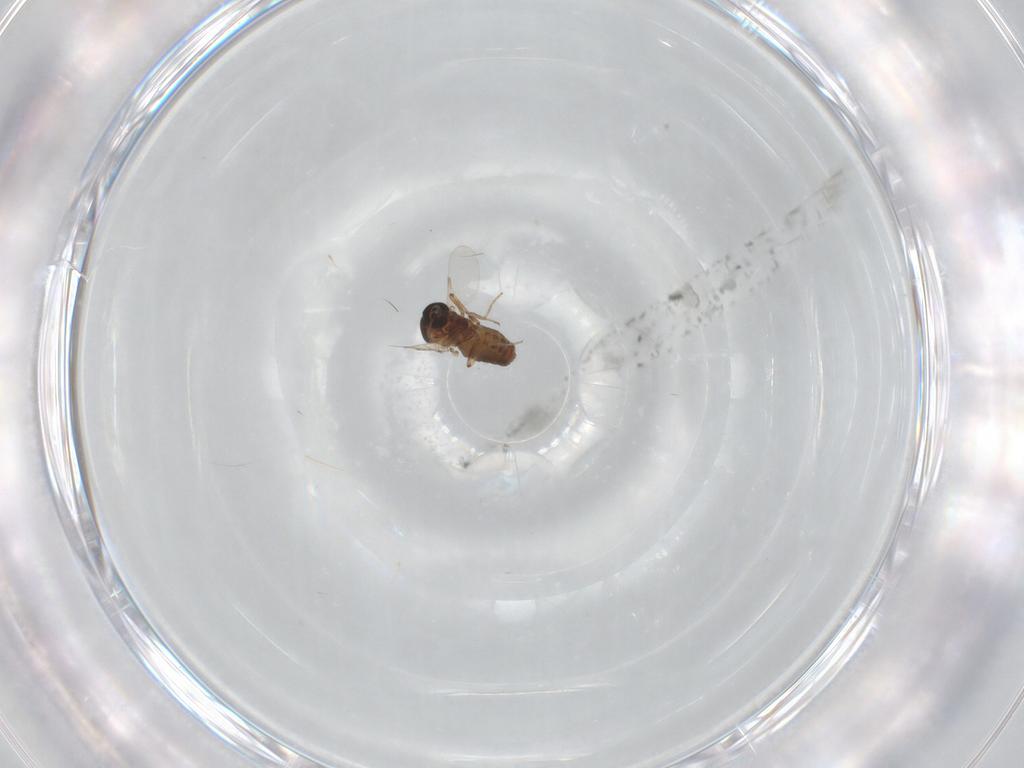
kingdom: Animalia
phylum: Arthropoda
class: Insecta
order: Diptera
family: Ceratopogonidae
